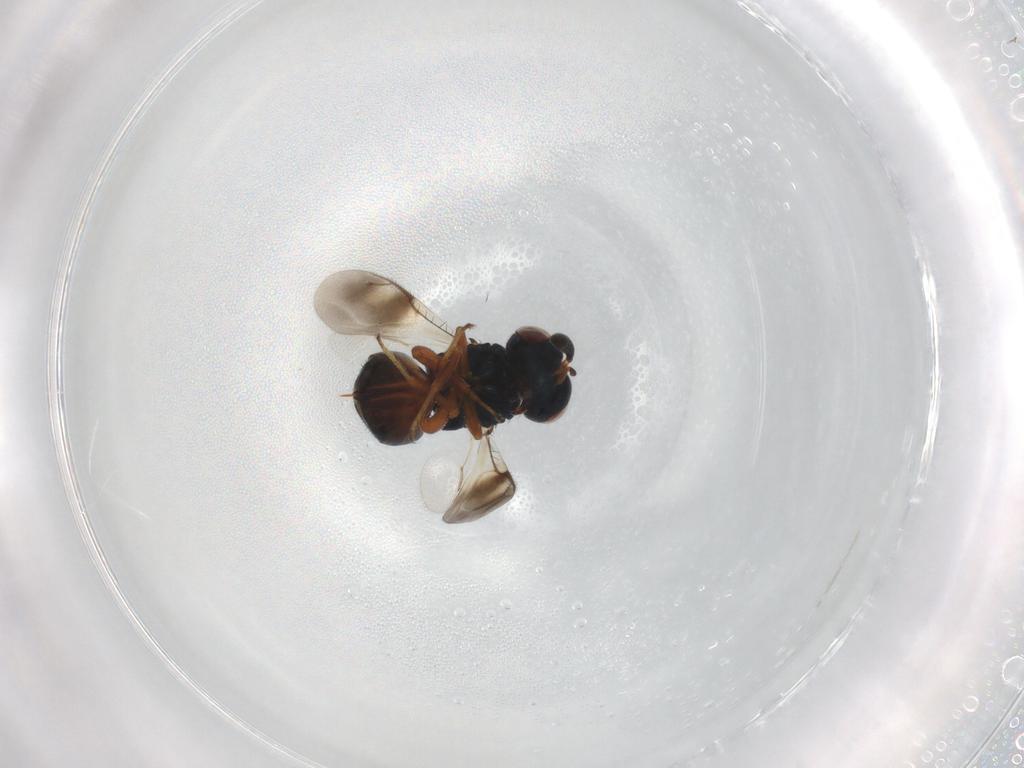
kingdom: Animalia
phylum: Arthropoda
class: Insecta
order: Hymenoptera
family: Pteromalidae
